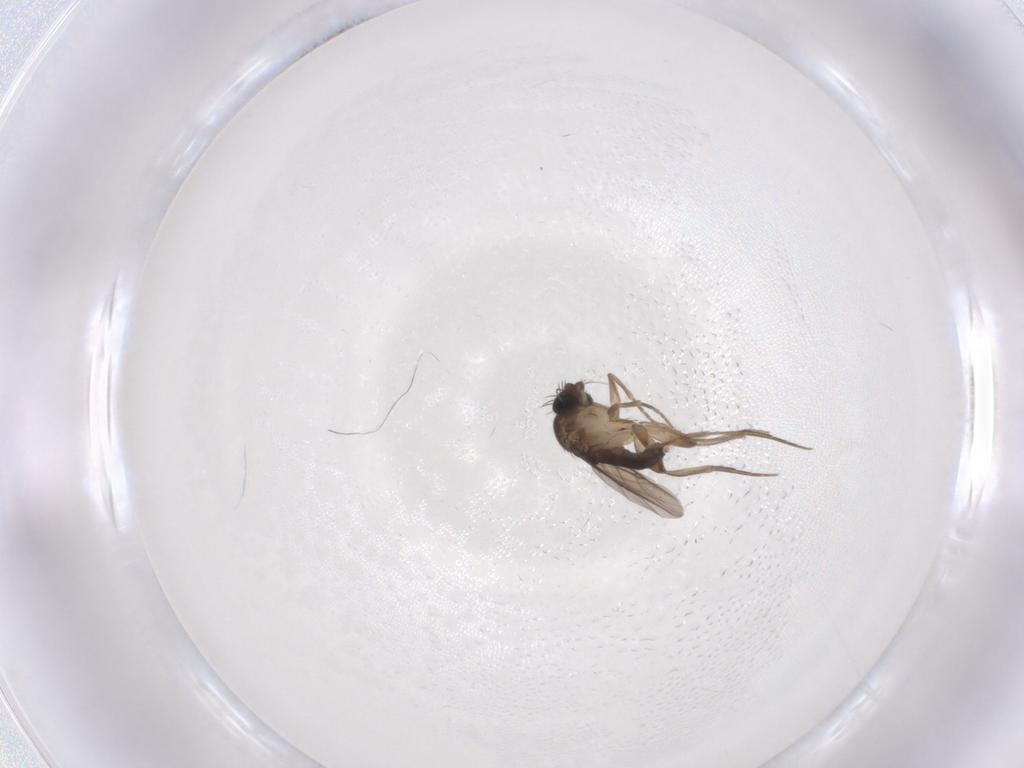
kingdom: Animalia
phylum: Arthropoda
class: Insecta
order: Diptera
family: Phoridae
